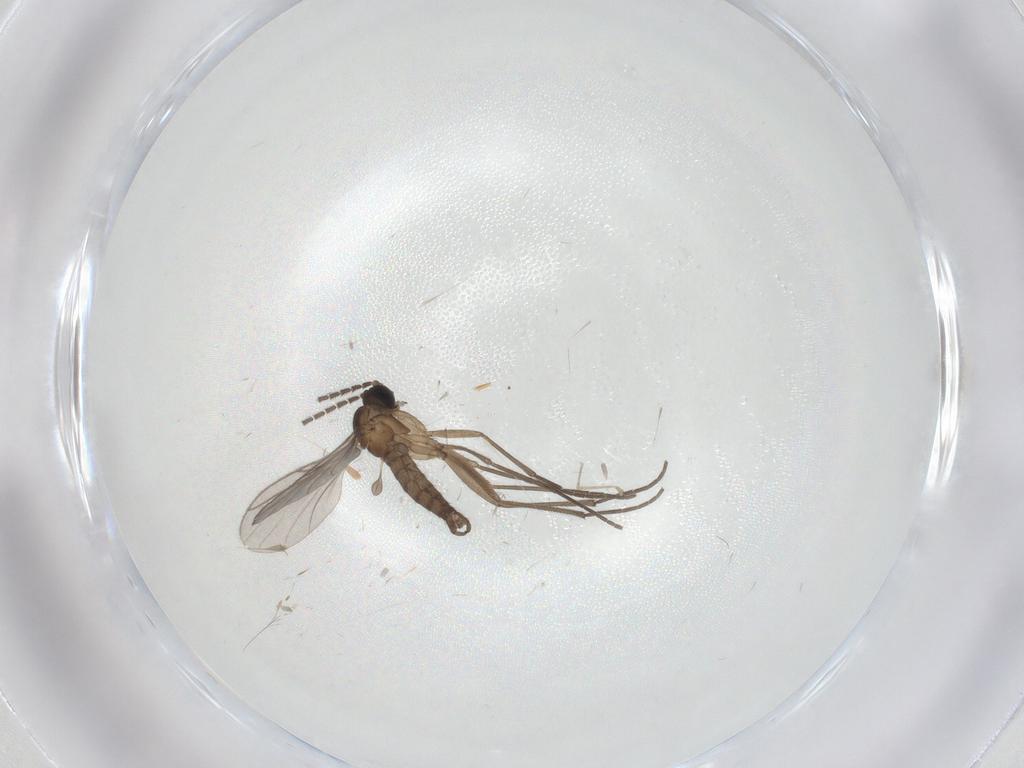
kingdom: Animalia
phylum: Arthropoda
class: Insecta
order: Diptera
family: Sciaridae
